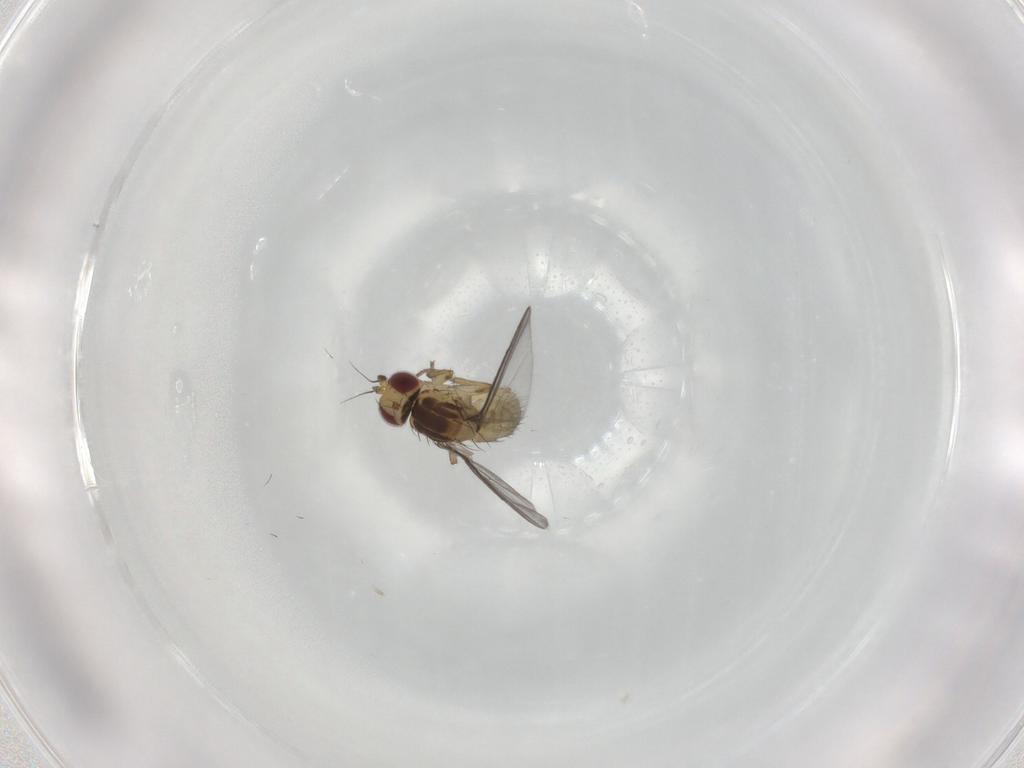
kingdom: Animalia
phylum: Arthropoda
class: Insecta
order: Diptera
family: Agromyzidae
